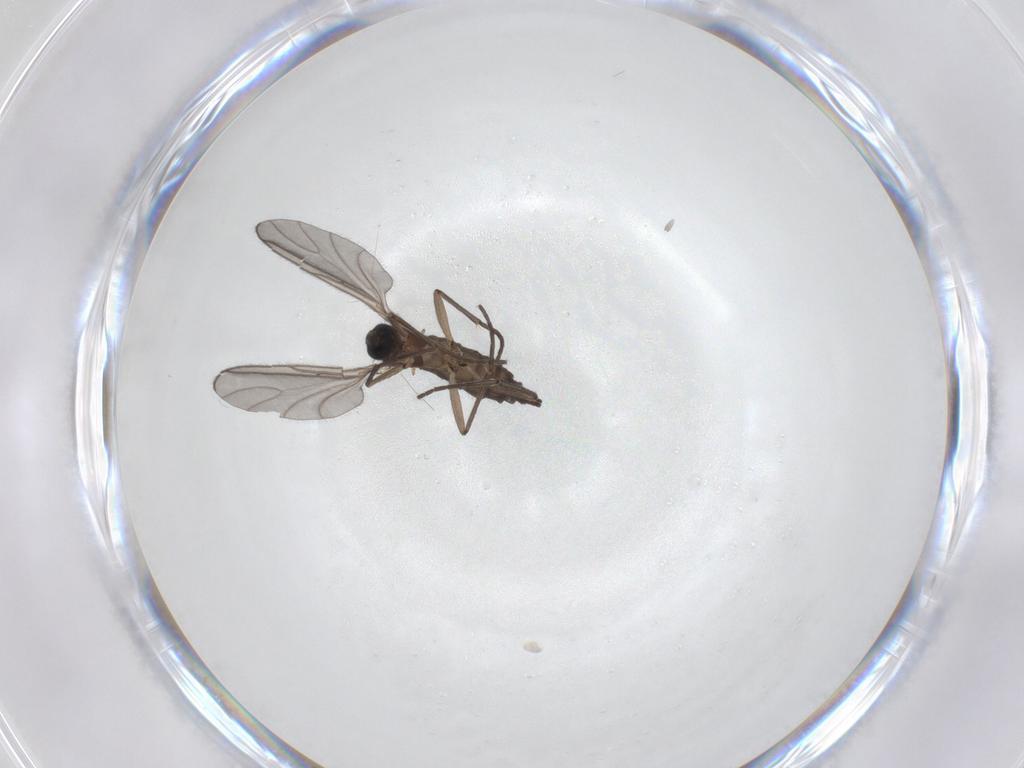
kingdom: Animalia
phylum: Arthropoda
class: Insecta
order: Diptera
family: Sciaridae
